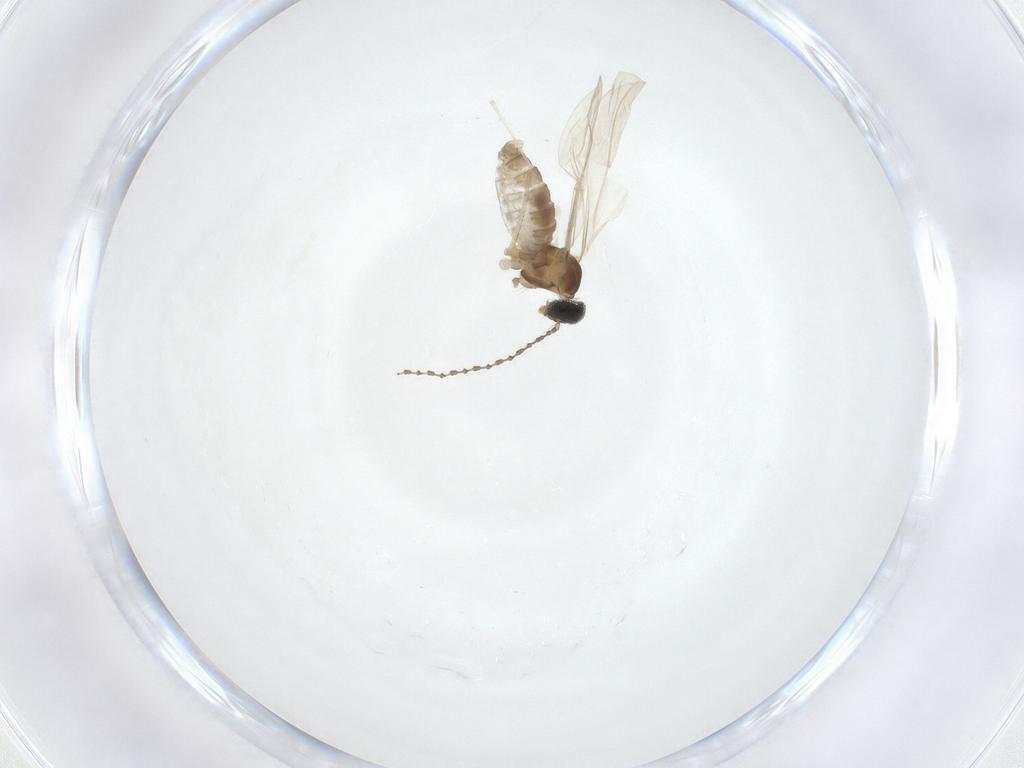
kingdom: Animalia
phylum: Arthropoda
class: Insecta
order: Diptera
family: Cecidomyiidae
